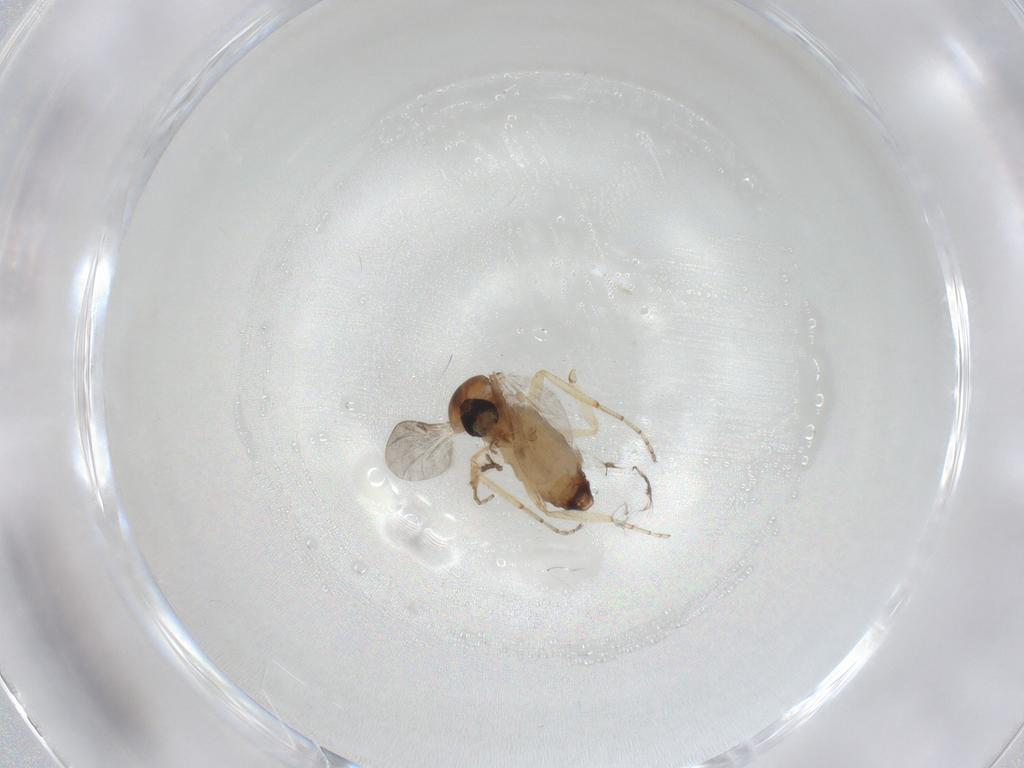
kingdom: Animalia
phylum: Arthropoda
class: Insecta
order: Diptera
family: Ceratopogonidae
